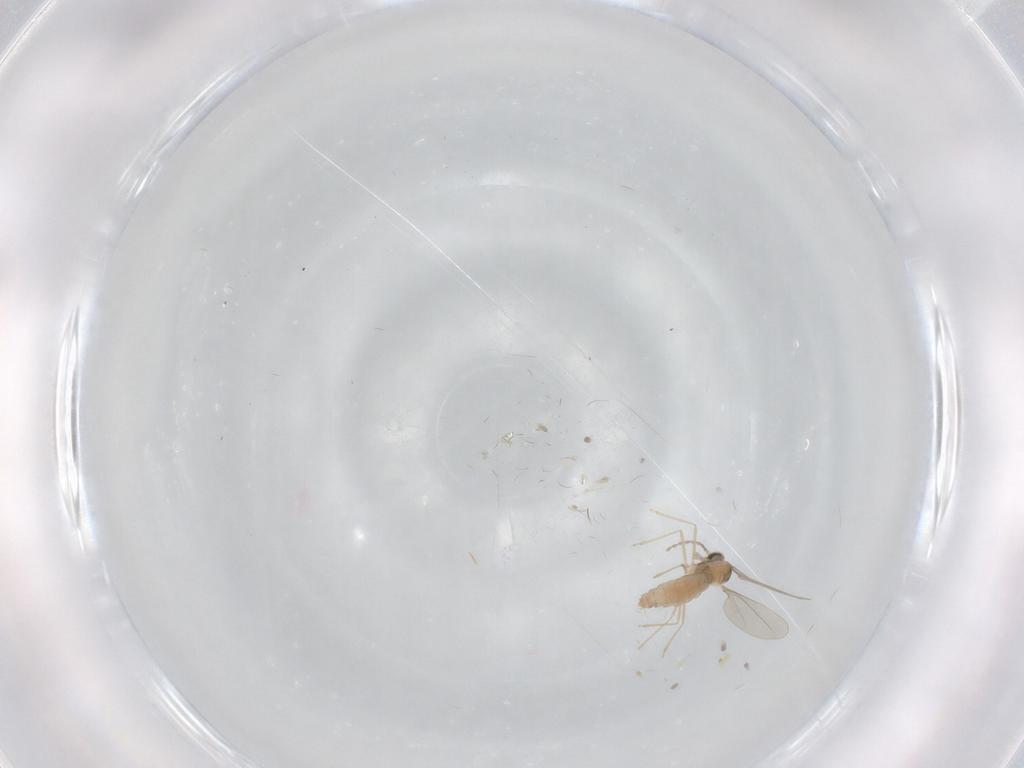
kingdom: Animalia
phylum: Arthropoda
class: Insecta
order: Diptera
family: Cecidomyiidae
